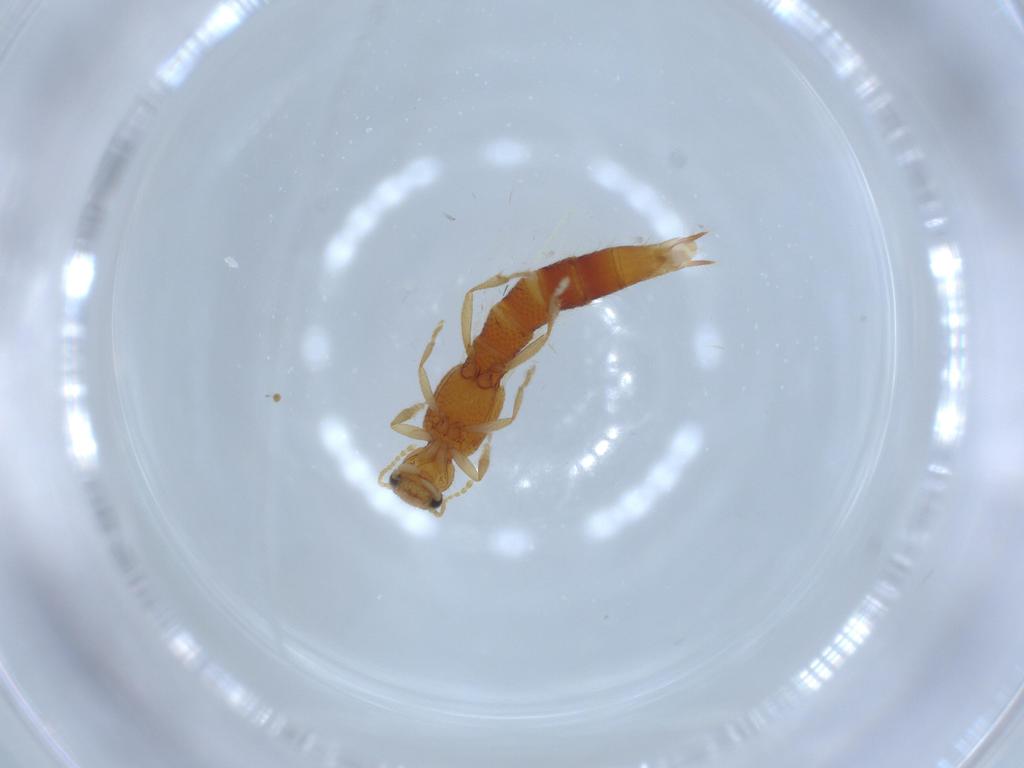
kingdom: Animalia
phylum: Arthropoda
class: Insecta
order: Coleoptera
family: Staphylinidae
